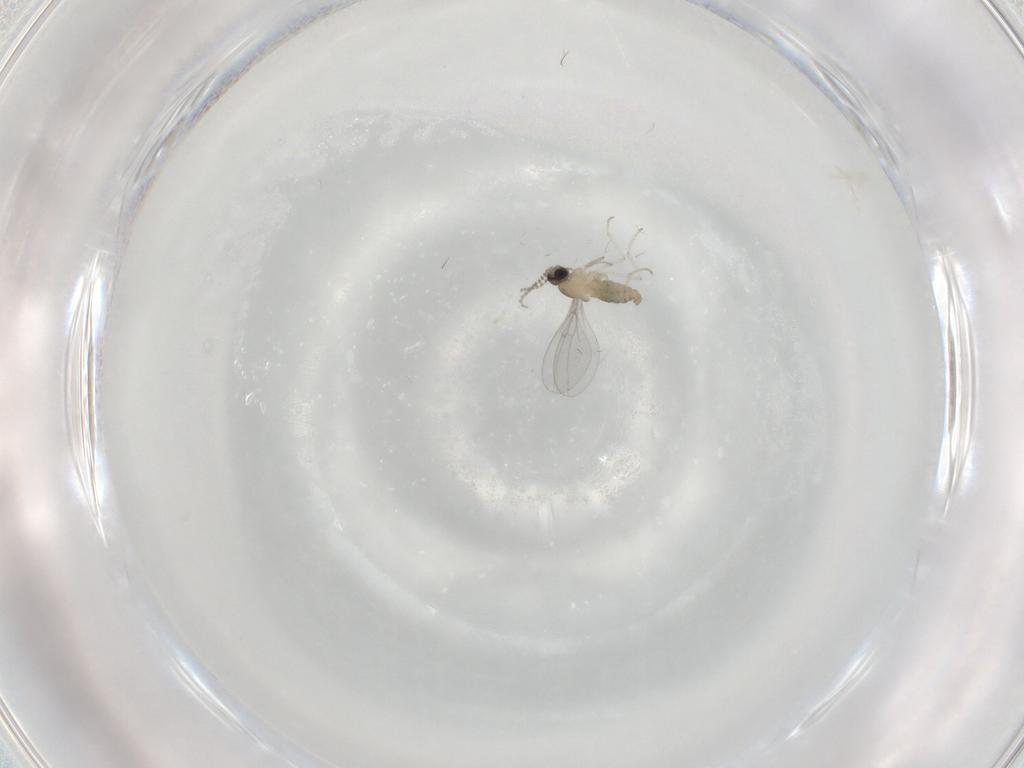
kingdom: Animalia
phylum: Arthropoda
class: Insecta
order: Diptera
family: Cecidomyiidae
